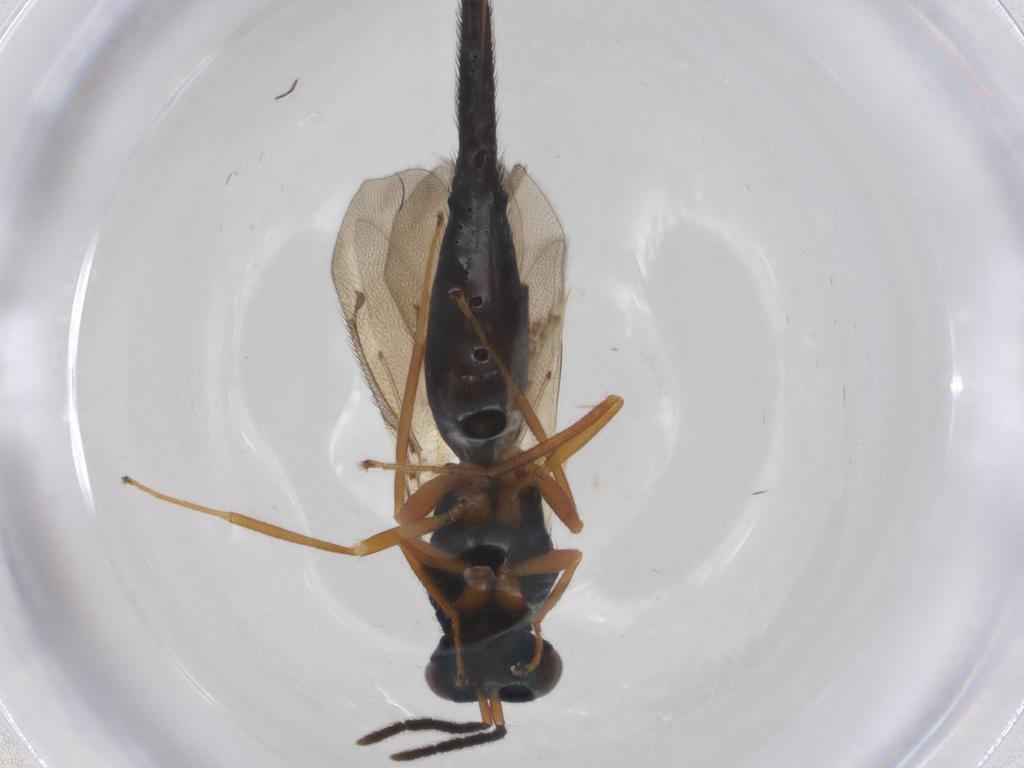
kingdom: Animalia
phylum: Arthropoda
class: Insecta
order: Hymenoptera
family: Eulophidae
